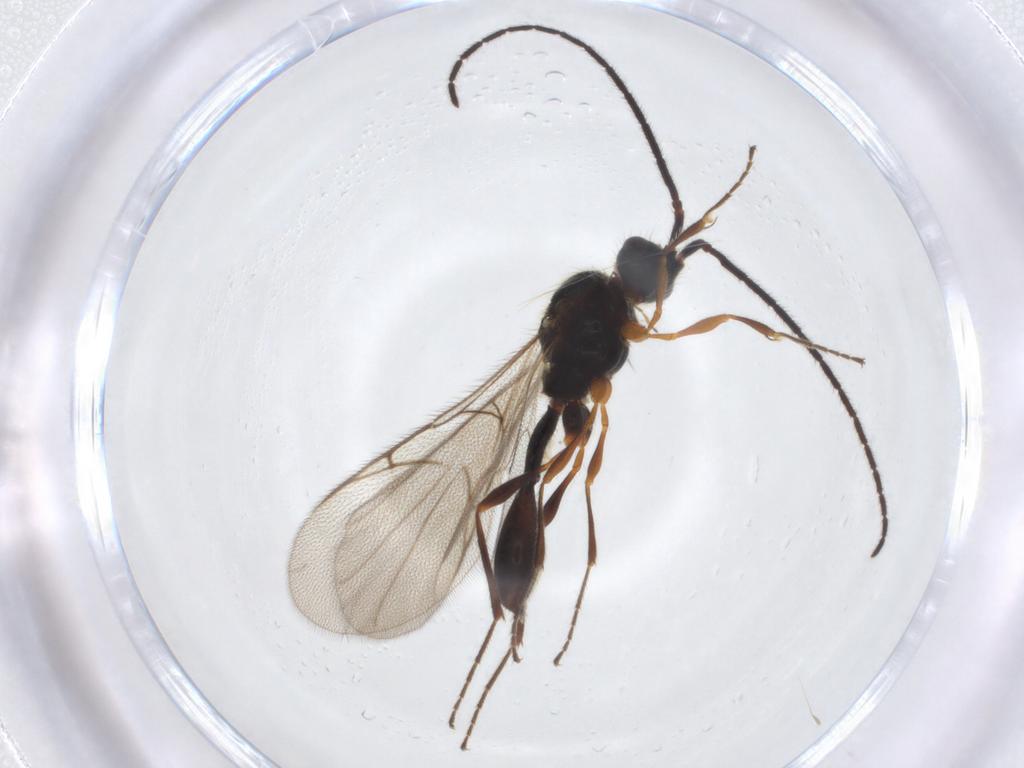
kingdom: Animalia
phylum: Arthropoda
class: Insecta
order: Hymenoptera
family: Diapriidae
